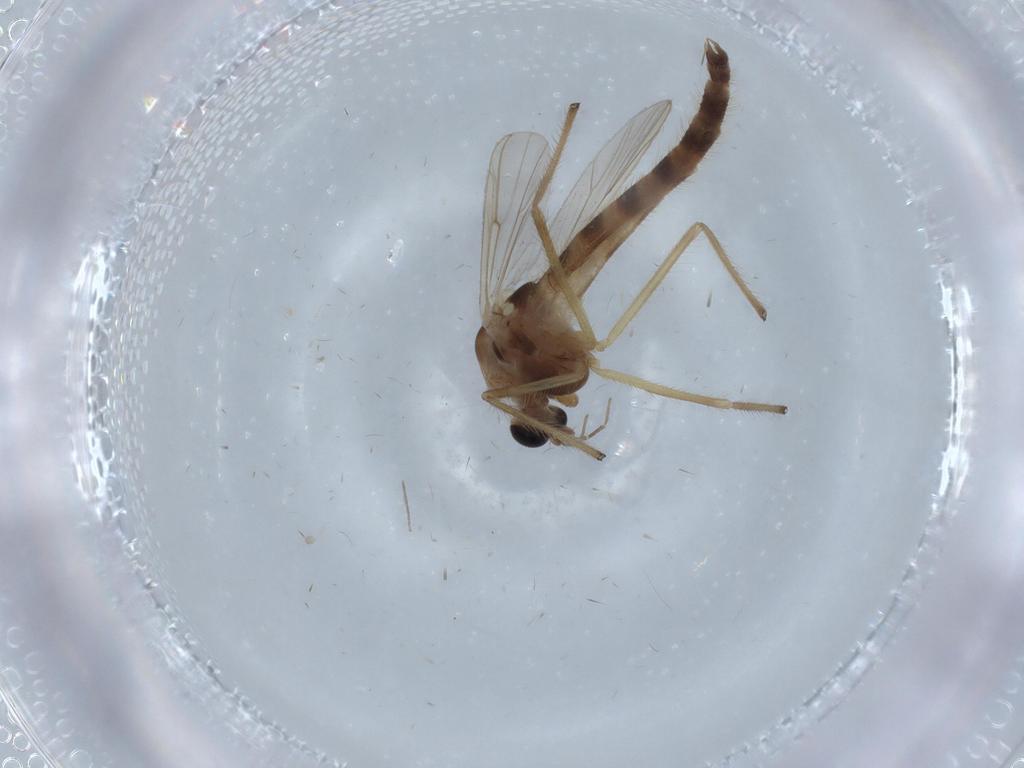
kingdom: Animalia
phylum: Arthropoda
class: Insecta
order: Diptera
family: Chironomidae
